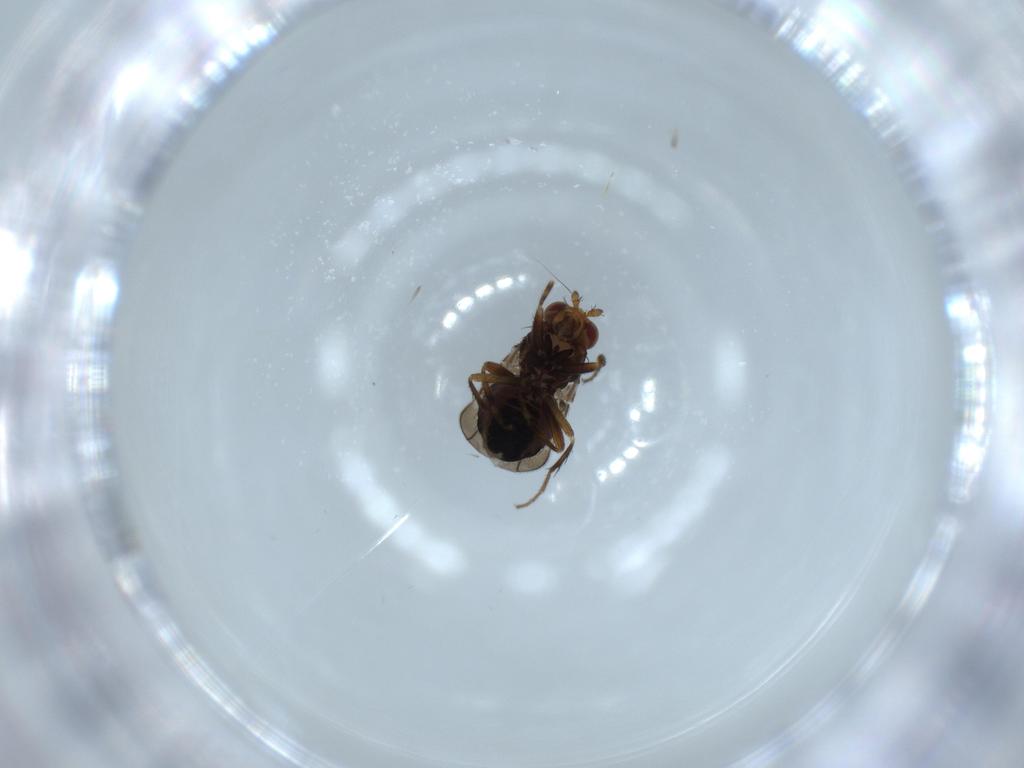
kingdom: Animalia
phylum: Arthropoda
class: Insecta
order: Diptera
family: Sphaeroceridae
